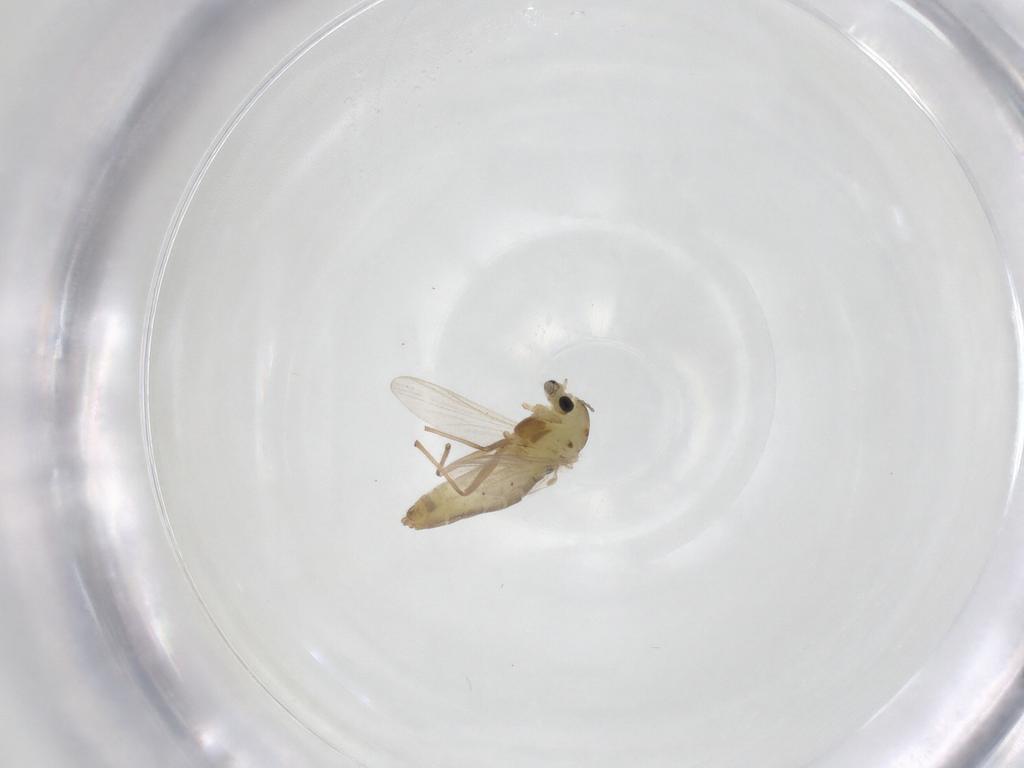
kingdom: Animalia
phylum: Arthropoda
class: Insecta
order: Diptera
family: Chironomidae
